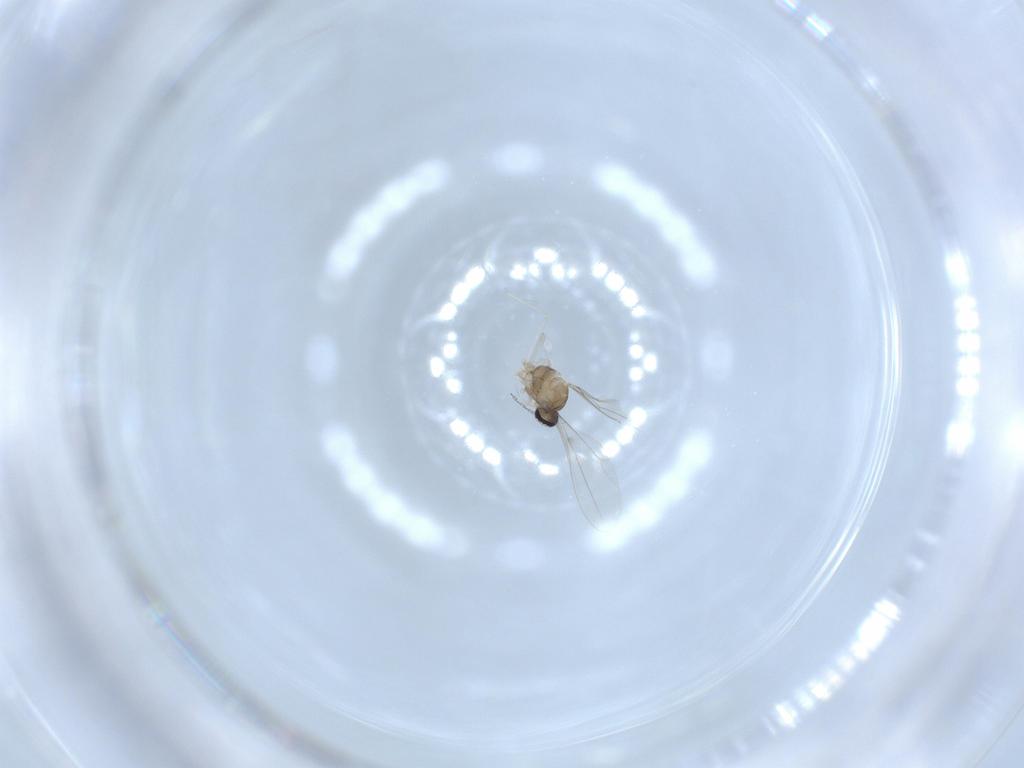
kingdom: Animalia
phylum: Arthropoda
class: Insecta
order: Diptera
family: Cecidomyiidae
